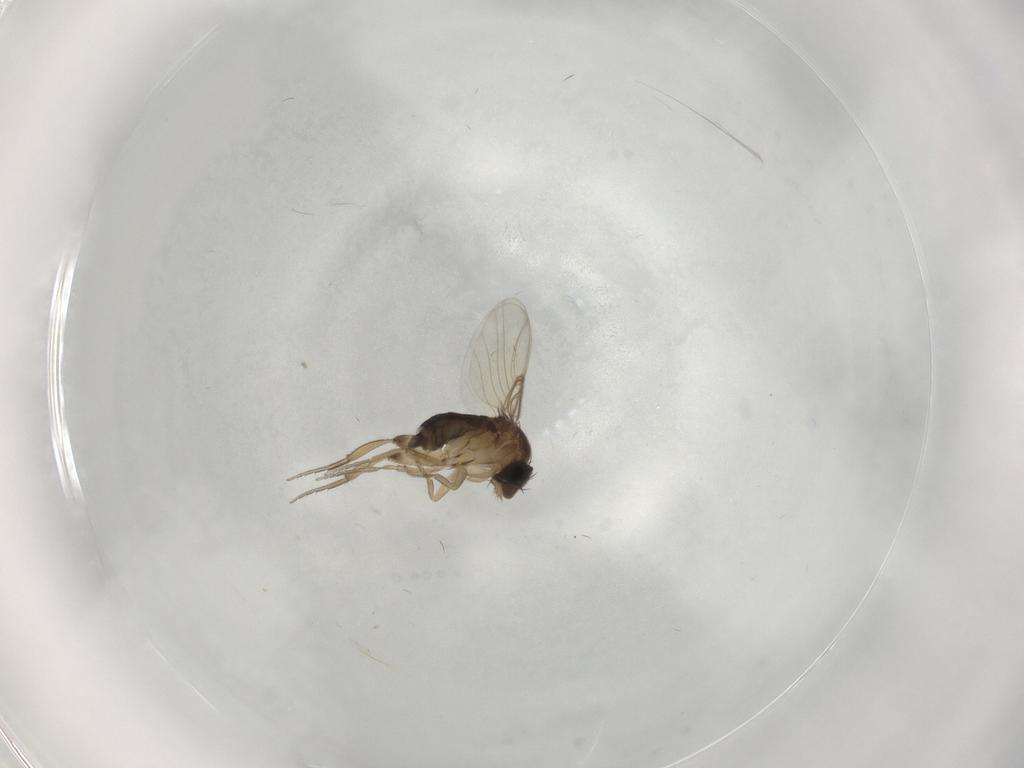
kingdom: Animalia
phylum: Arthropoda
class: Insecta
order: Diptera
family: Phoridae
